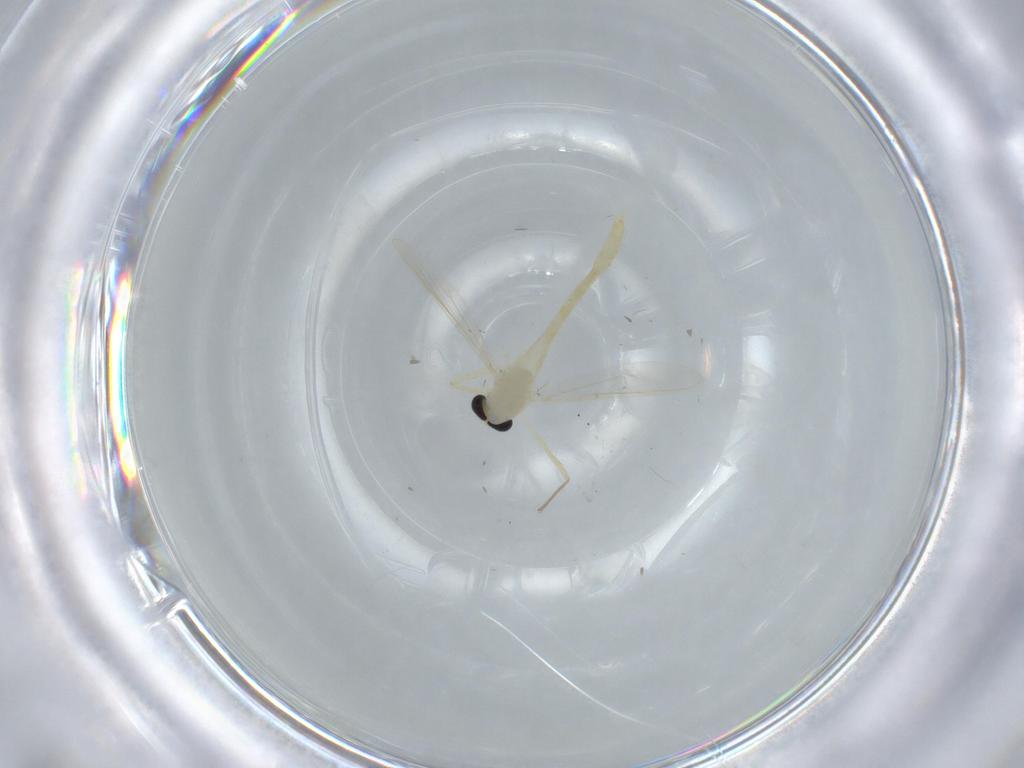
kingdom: Animalia
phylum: Arthropoda
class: Insecta
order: Diptera
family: Chironomidae
